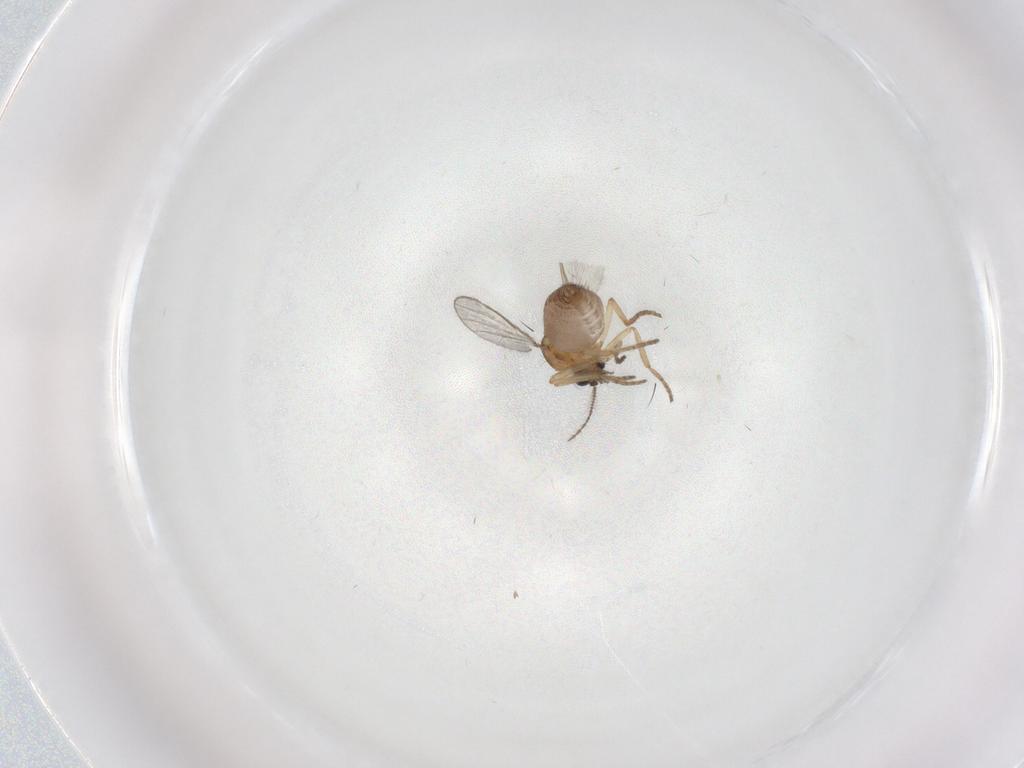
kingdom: Animalia
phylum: Arthropoda
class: Insecta
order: Diptera
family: Ceratopogonidae
